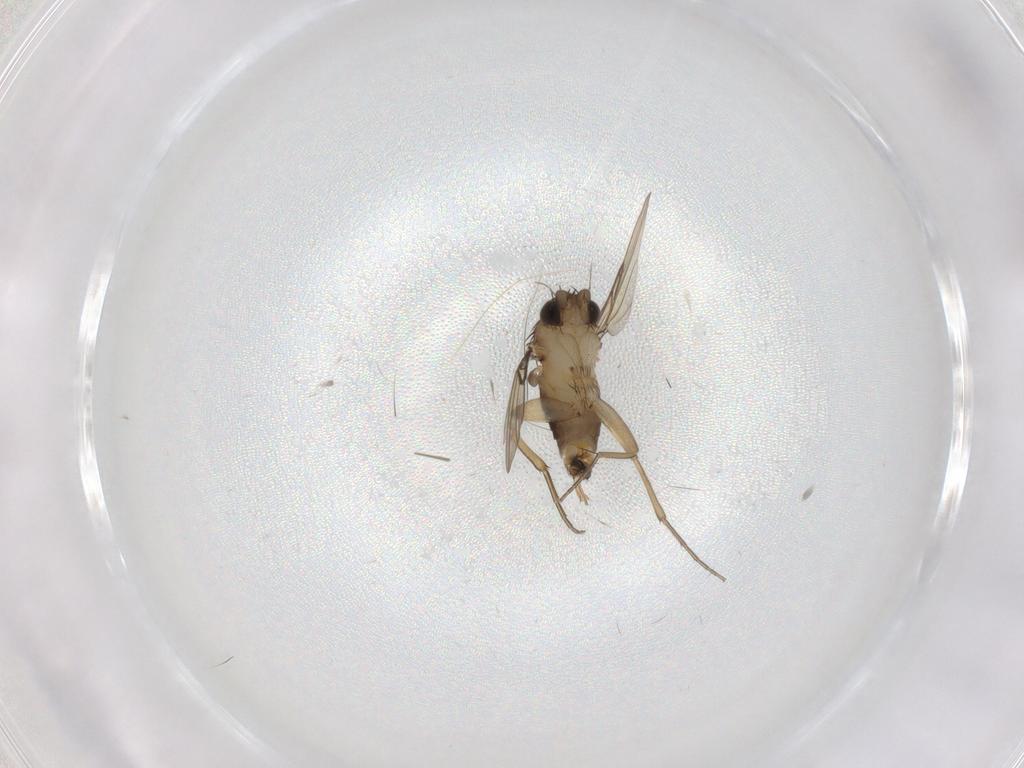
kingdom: Animalia
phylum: Arthropoda
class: Insecta
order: Diptera
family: Phoridae
